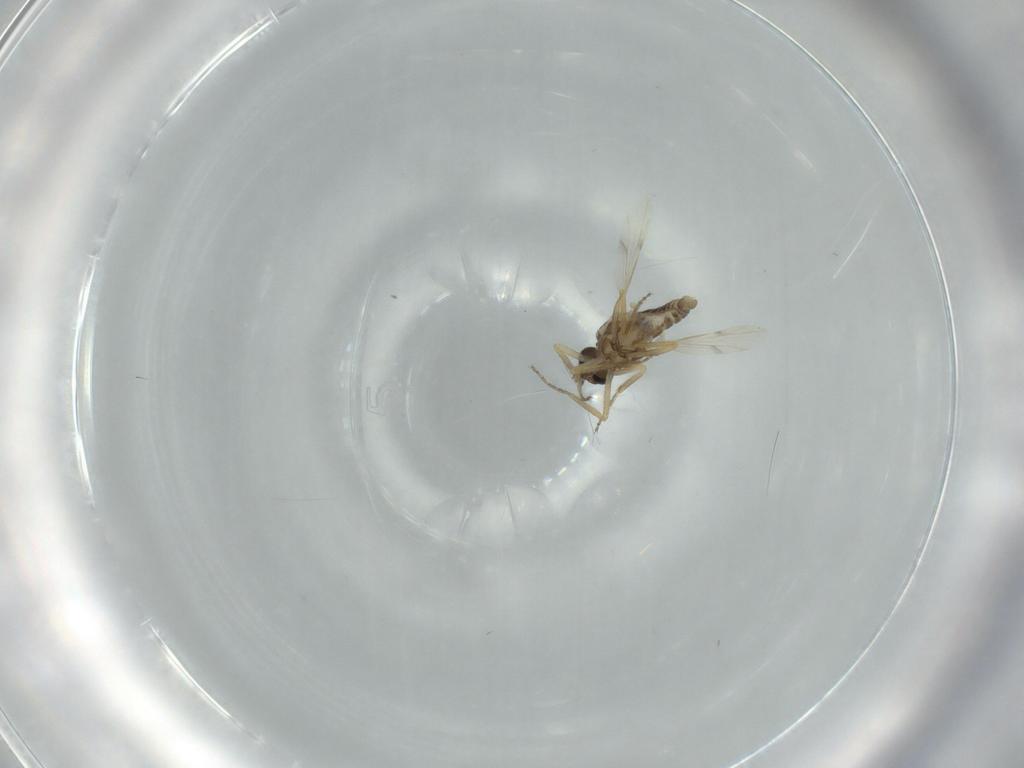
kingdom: Animalia
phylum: Arthropoda
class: Insecta
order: Diptera
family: Ceratopogonidae
